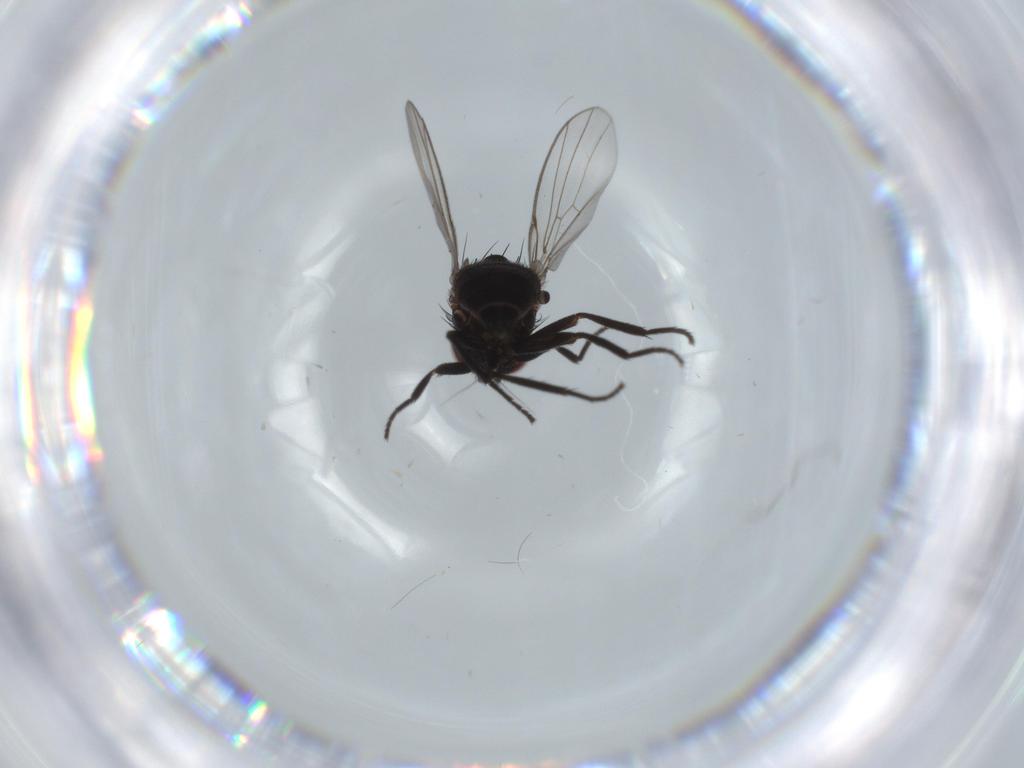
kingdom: Animalia
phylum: Arthropoda
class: Insecta
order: Diptera
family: Agromyzidae
